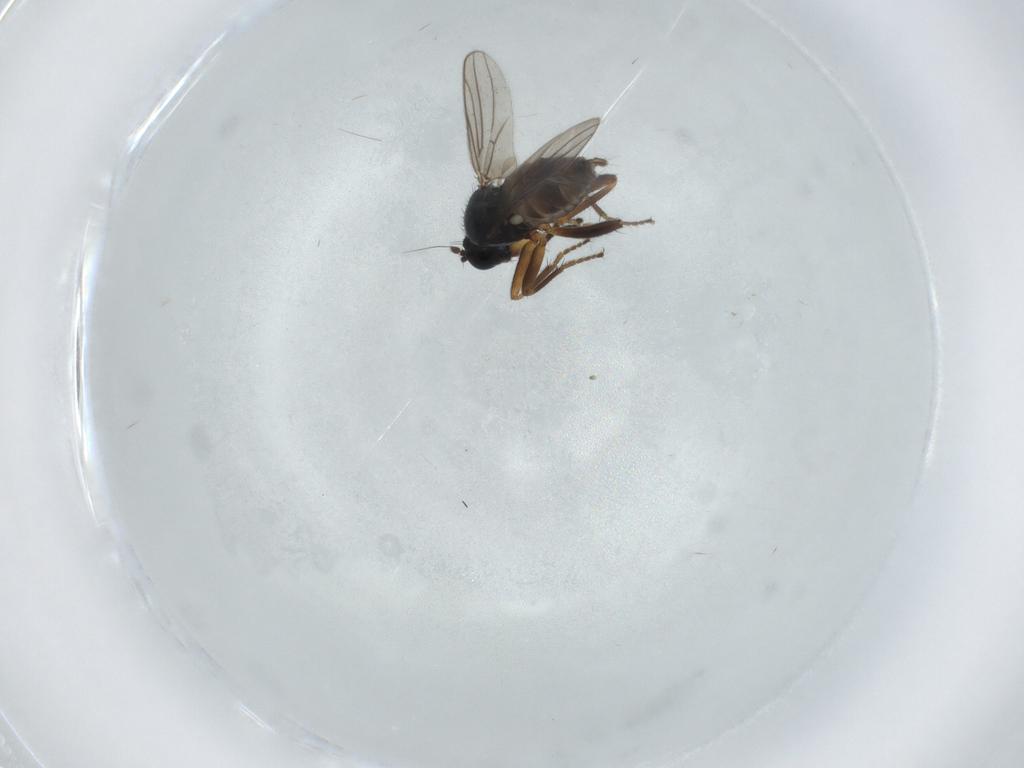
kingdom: Animalia
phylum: Arthropoda
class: Insecta
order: Diptera
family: Hybotidae
